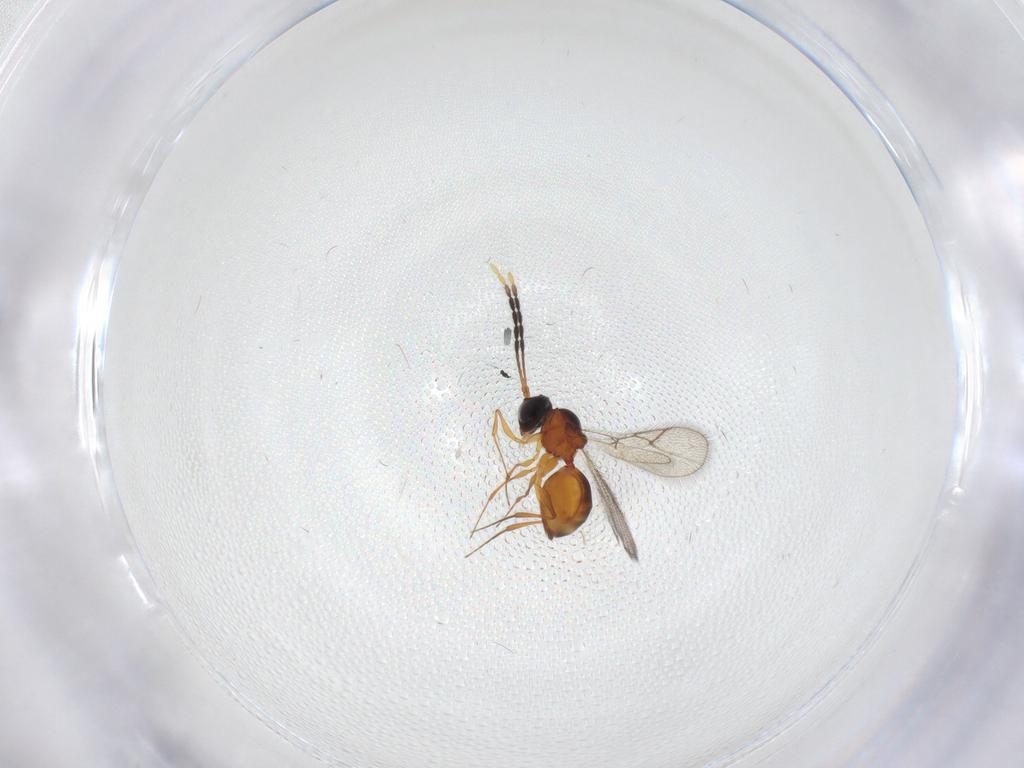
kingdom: Animalia
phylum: Arthropoda
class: Insecta
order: Hymenoptera
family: Figitidae
